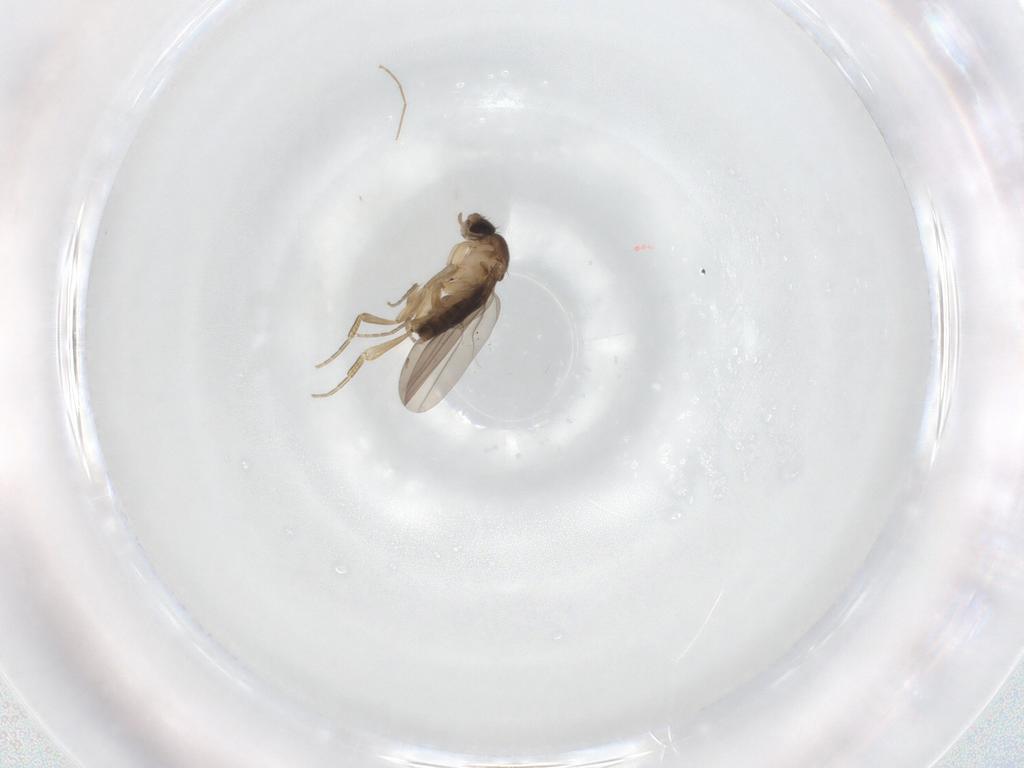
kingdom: Animalia
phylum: Arthropoda
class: Insecta
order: Diptera
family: Phoridae
